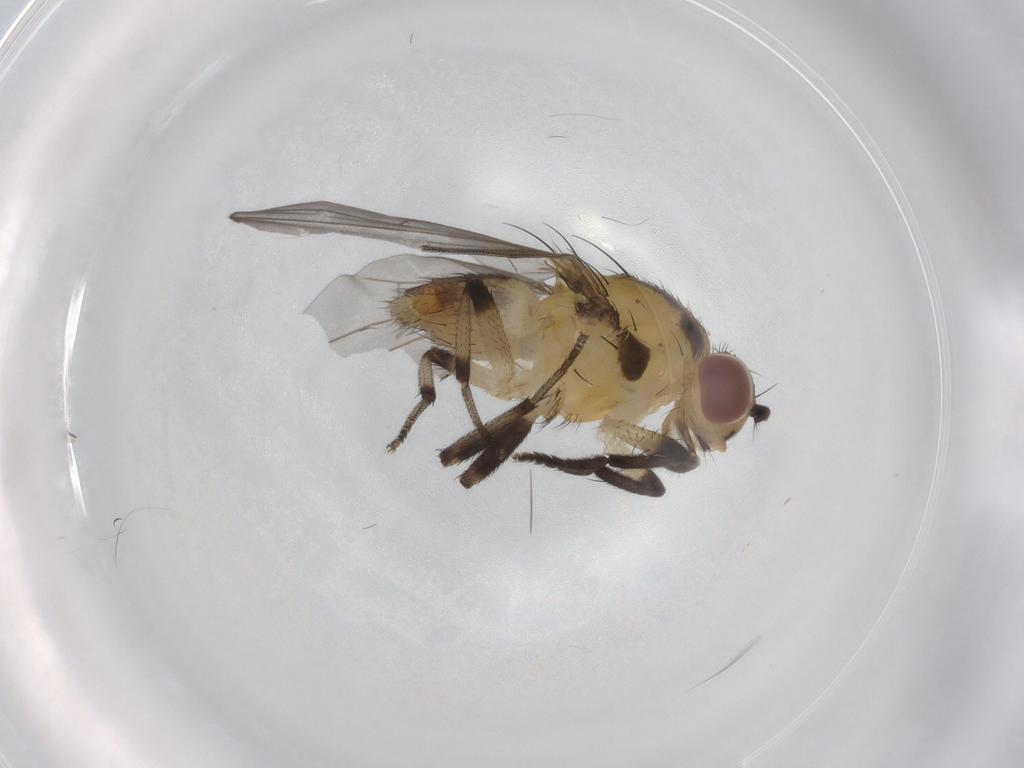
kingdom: Animalia
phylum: Arthropoda
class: Insecta
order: Diptera
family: Lauxaniidae
